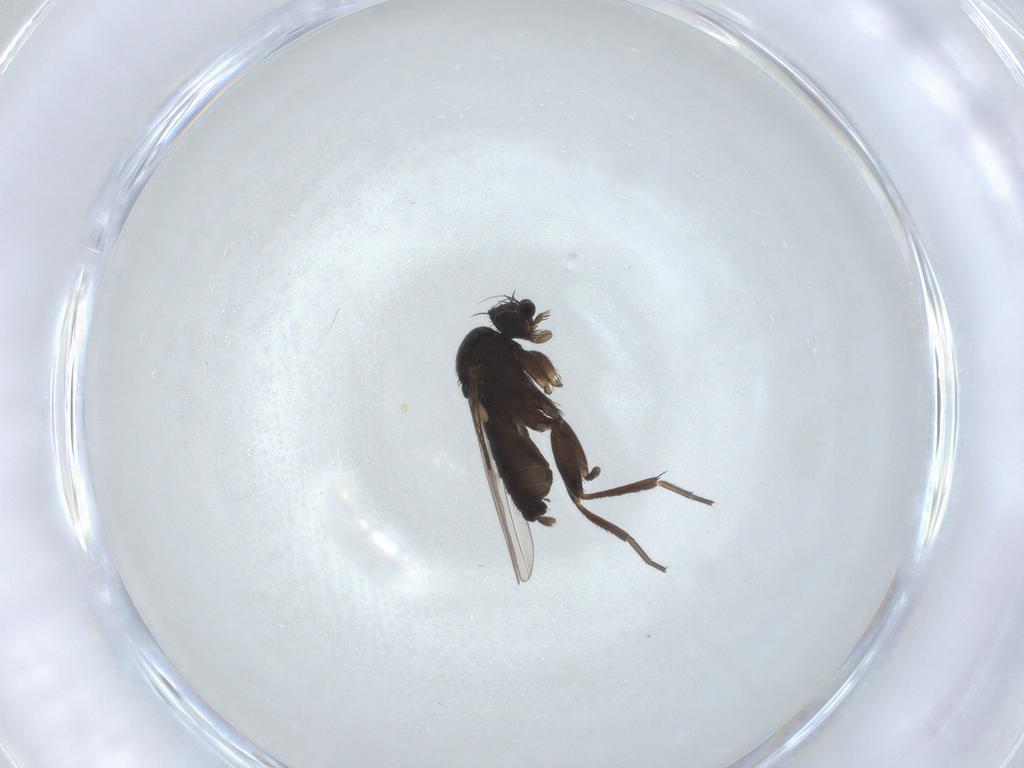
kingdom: Animalia
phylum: Arthropoda
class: Insecta
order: Diptera
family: Phoridae
